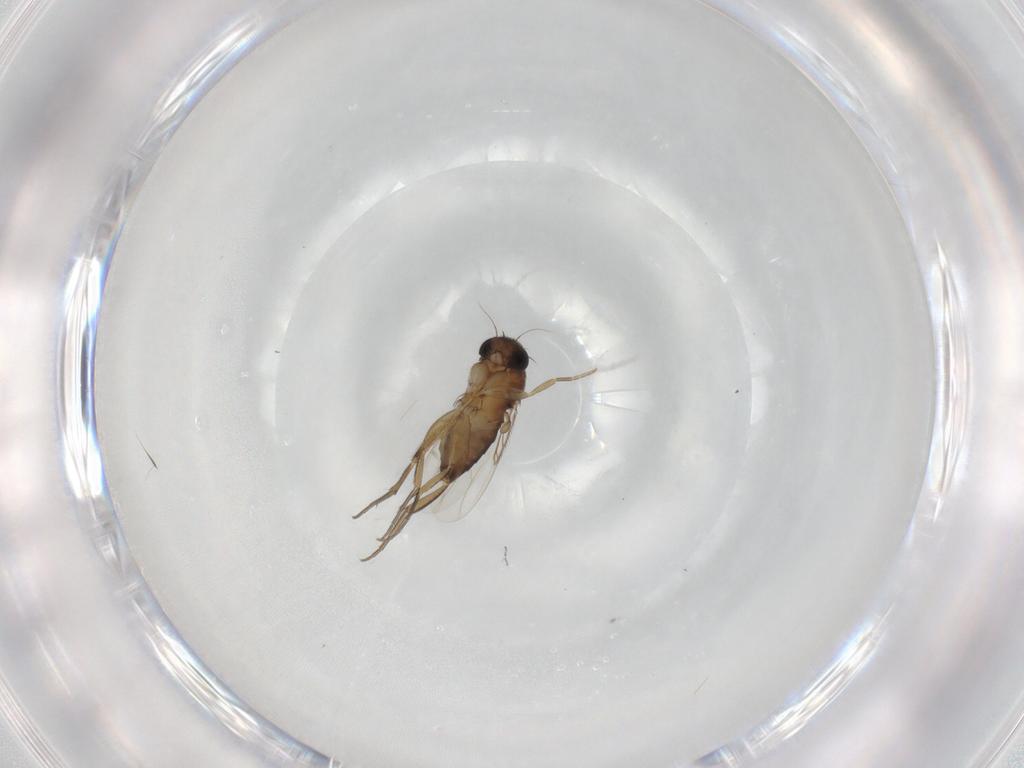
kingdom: Animalia
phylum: Arthropoda
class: Insecta
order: Diptera
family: Phoridae
